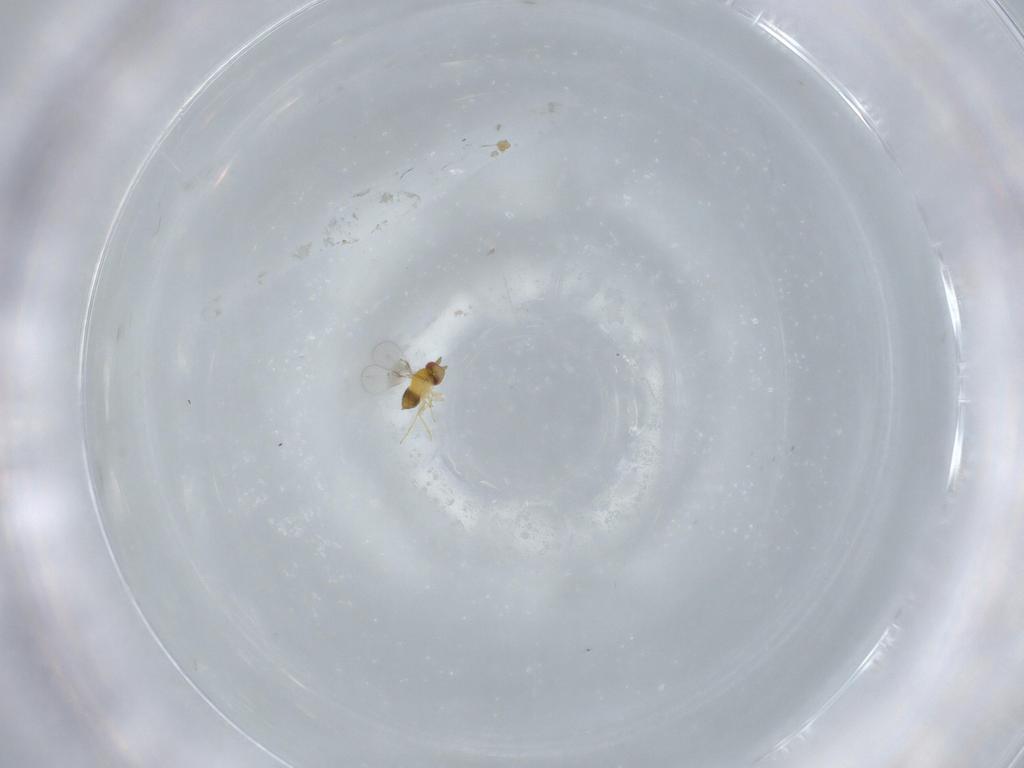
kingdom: Animalia
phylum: Arthropoda
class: Insecta
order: Hymenoptera
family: Trichogrammatidae
